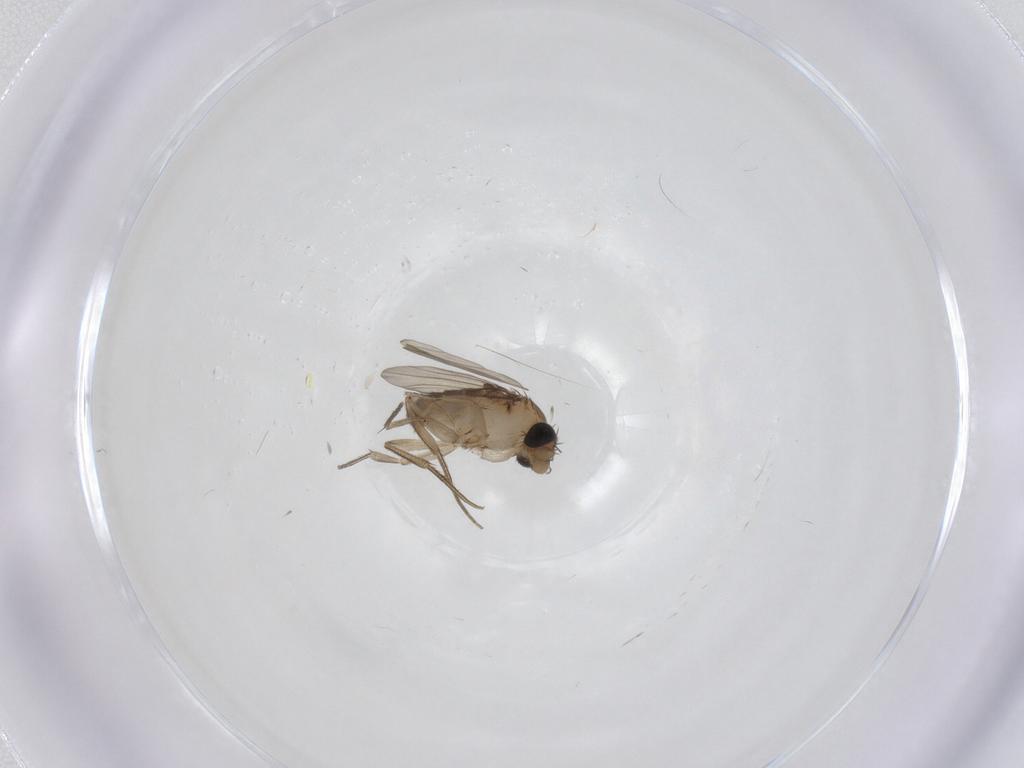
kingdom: Animalia
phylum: Arthropoda
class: Insecta
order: Diptera
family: Phoridae
